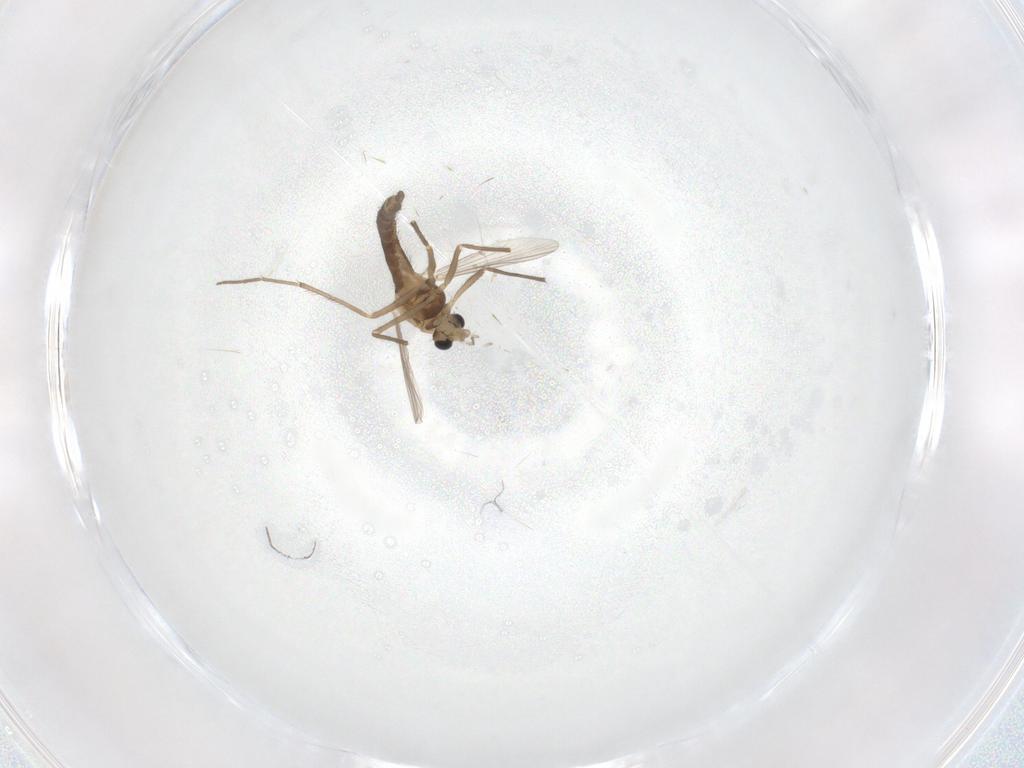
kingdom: Animalia
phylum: Arthropoda
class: Insecta
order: Diptera
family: Chironomidae
